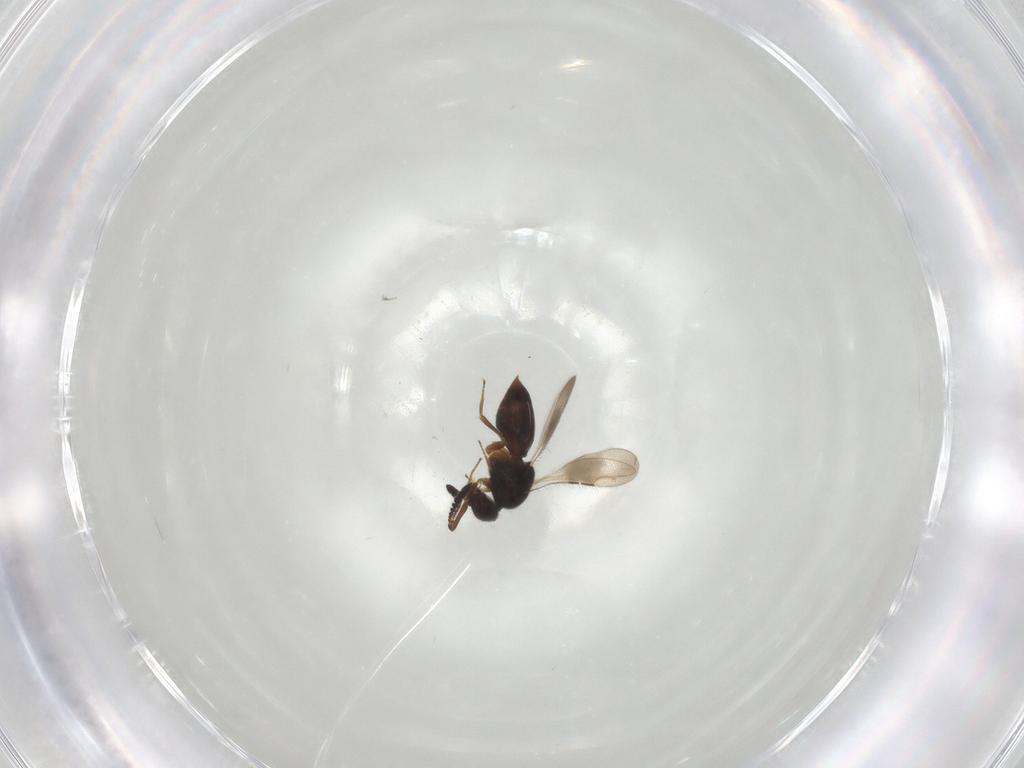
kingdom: Animalia
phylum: Arthropoda
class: Insecta
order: Hymenoptera
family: Ceraphronidae
